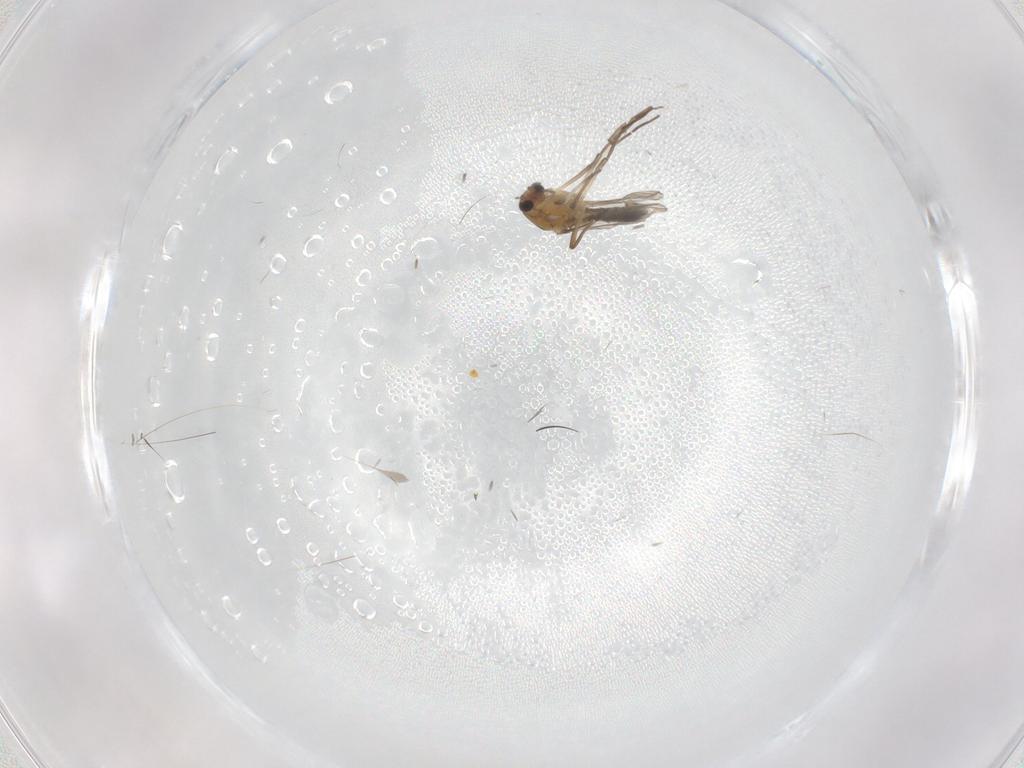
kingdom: Animalia
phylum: Arthropoda
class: Insecta
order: Diptera
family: Chironomidae
